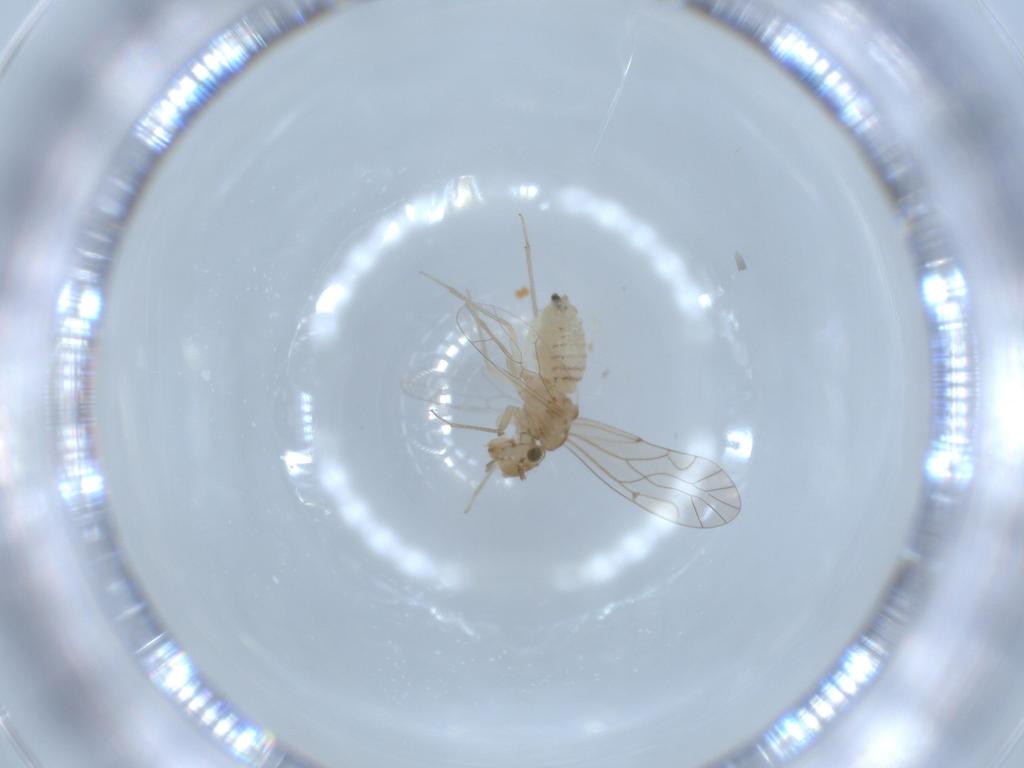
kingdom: Animalia
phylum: Arthropoda
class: Insecta
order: Psocodea
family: Lachesillidae
